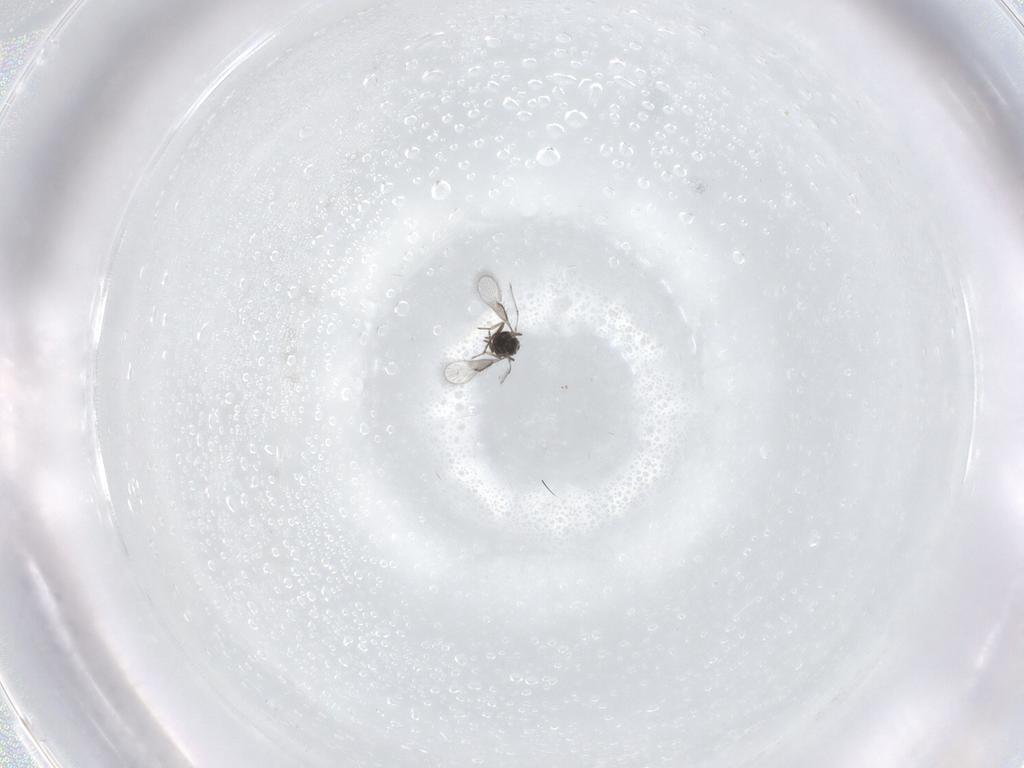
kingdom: Animalia
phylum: Arthropoda
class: Insecta
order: Hymenoptera
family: Trichogrammatidae
